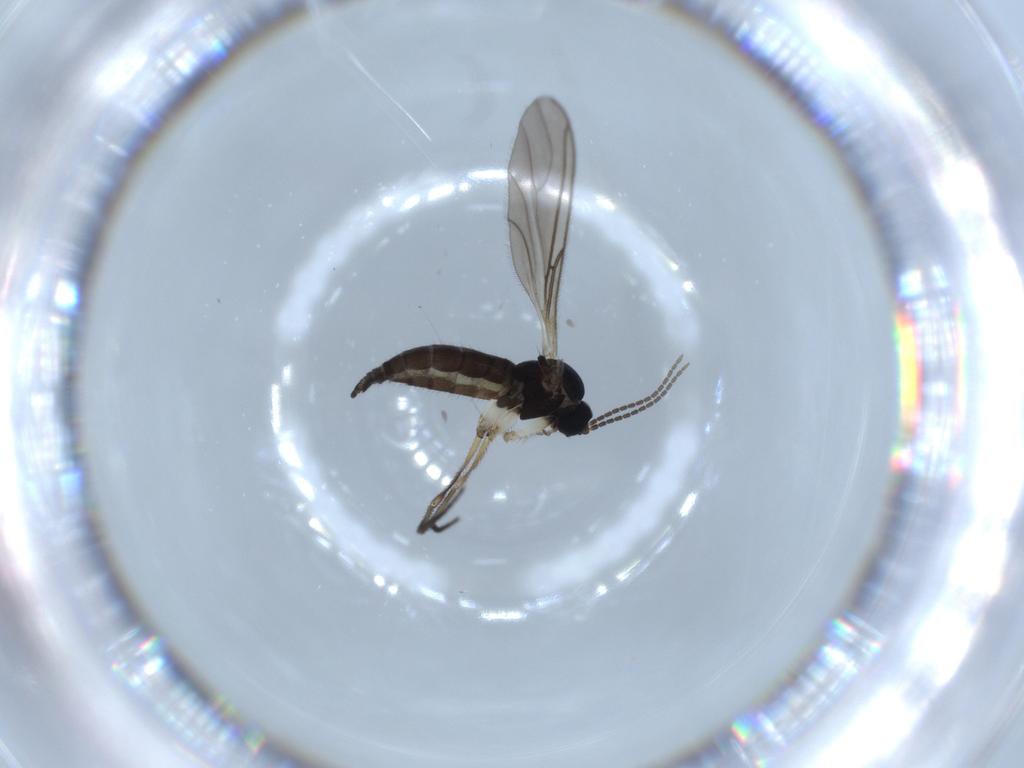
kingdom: Animalia
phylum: Arthropoda
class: Insecta
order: Diptera
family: Sciaridae
